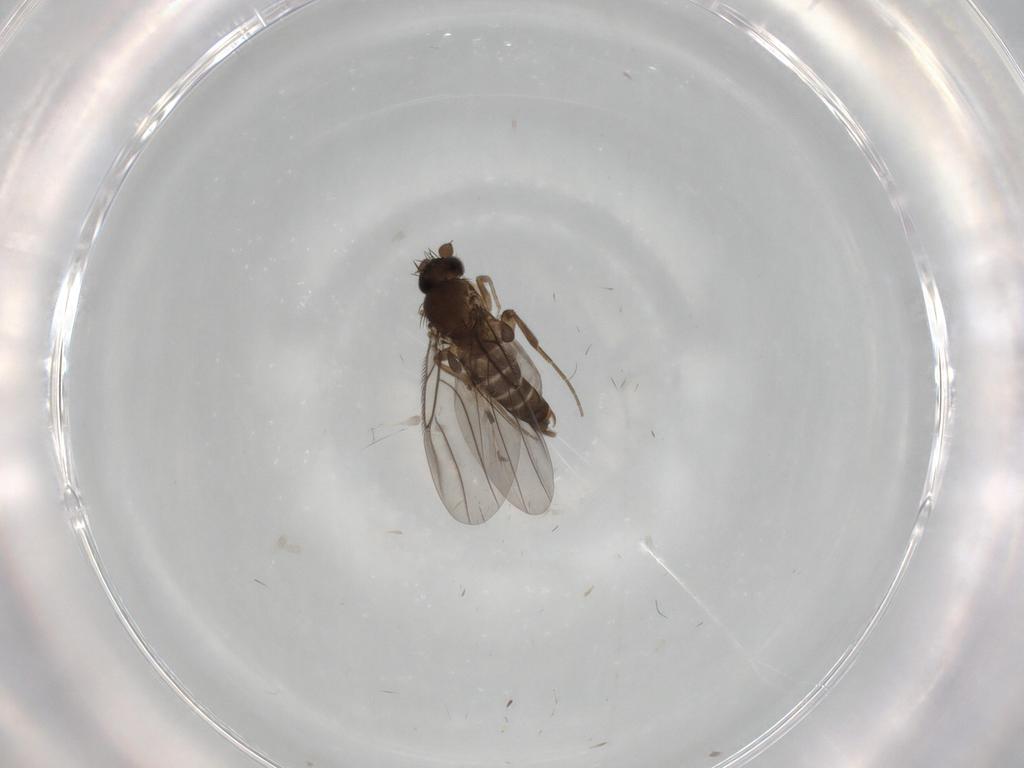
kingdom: Animalia
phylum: Arthropoda
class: Insecta
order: Diptera
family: Phoridae
